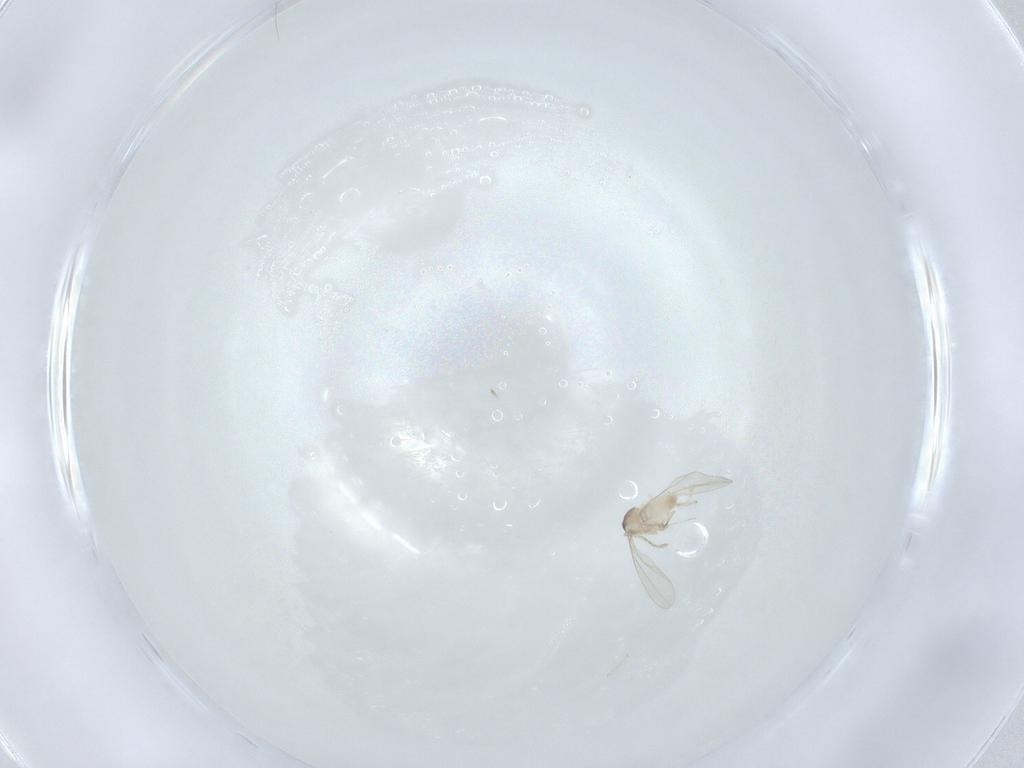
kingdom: Animalia
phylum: Arthropoda
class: Insecta
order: Diptera
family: Cecidomyiidae
